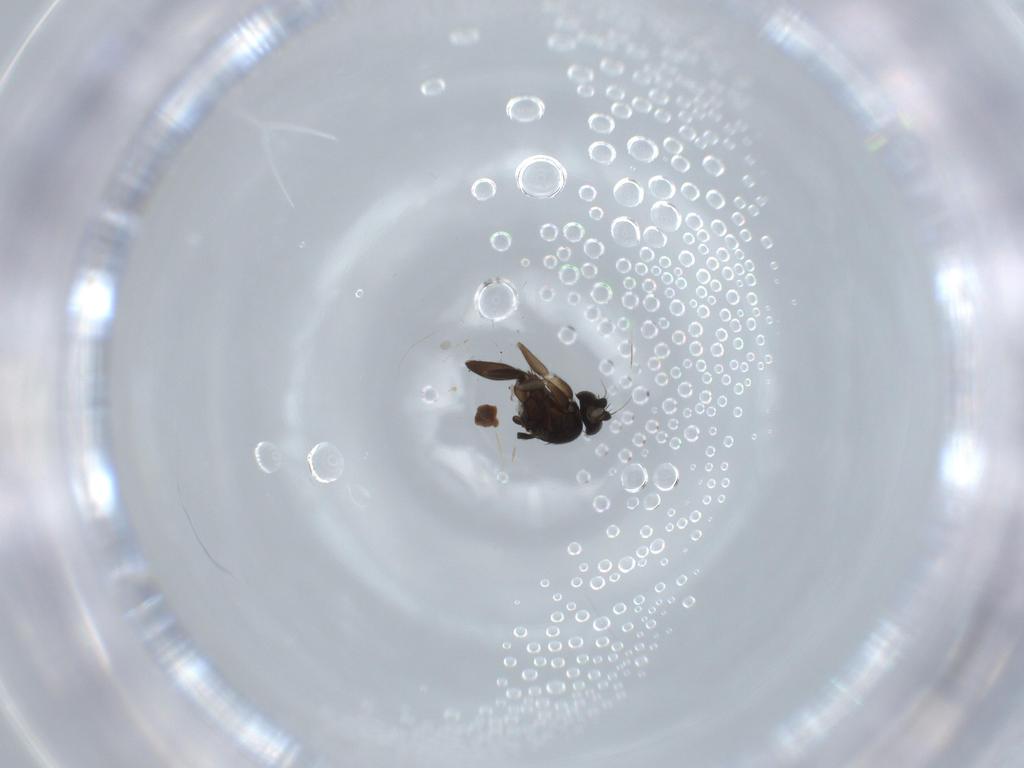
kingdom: Animalia
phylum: Arthropoda
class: Insecta
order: Diptera
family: Phoridae
